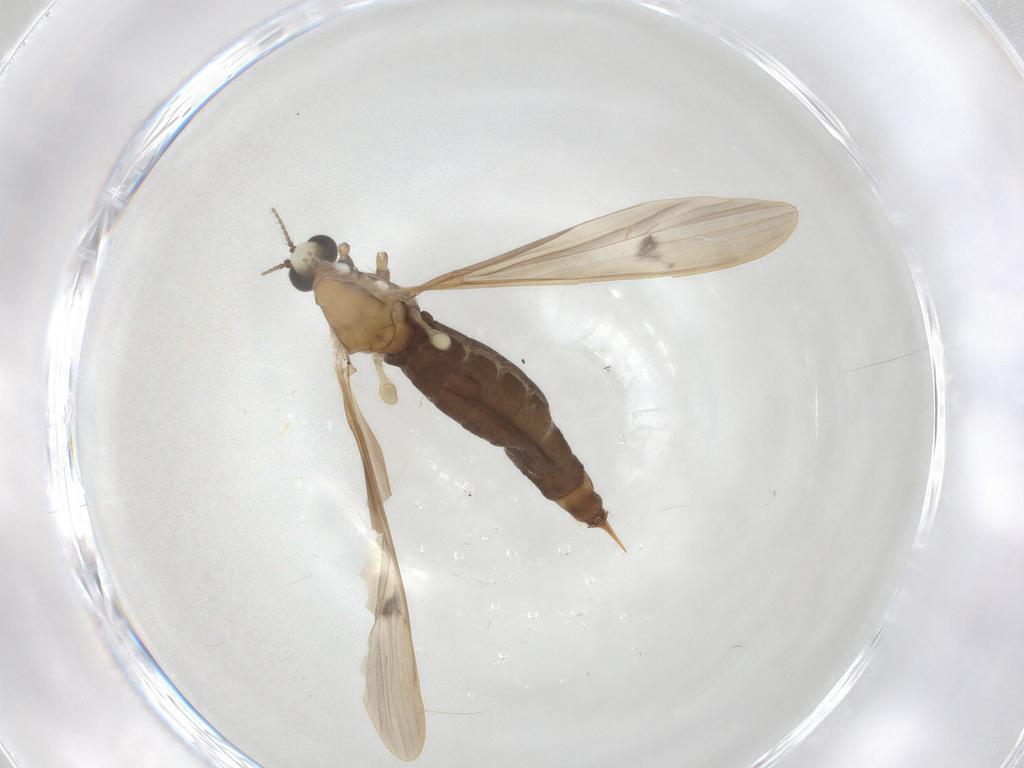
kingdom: Animalia
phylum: Arthropoda
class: Insecta
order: Diptera
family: Limoniidae
